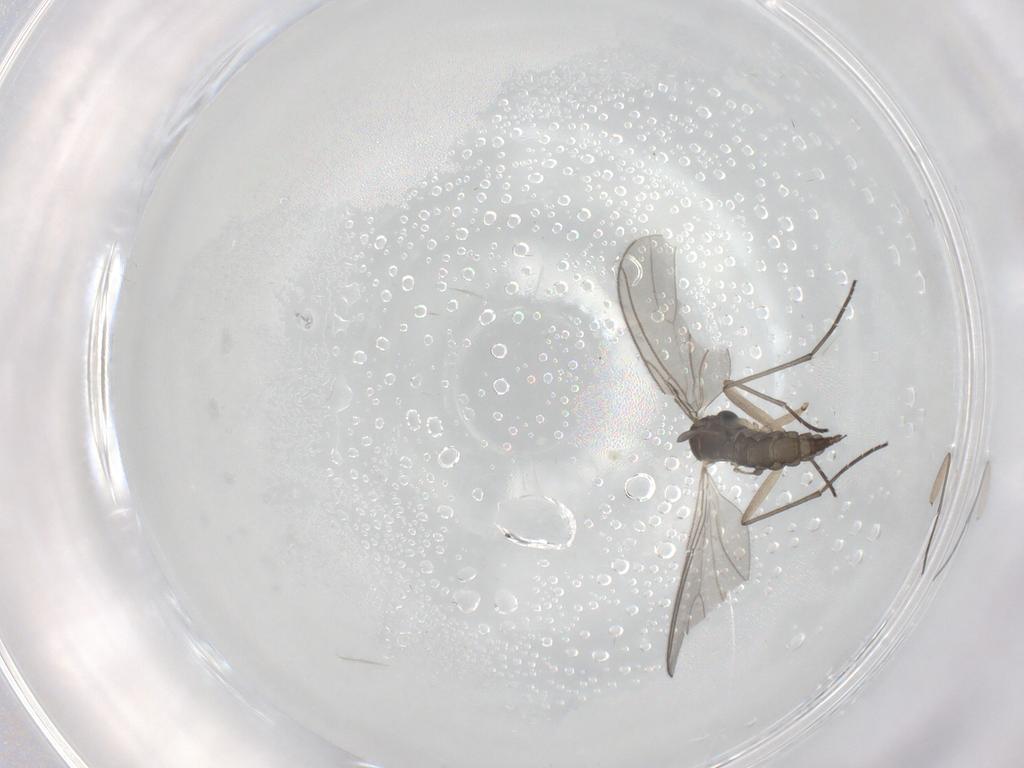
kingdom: Animalia
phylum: Arthropoda
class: Insecta
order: Diptera
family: Sciaridae
